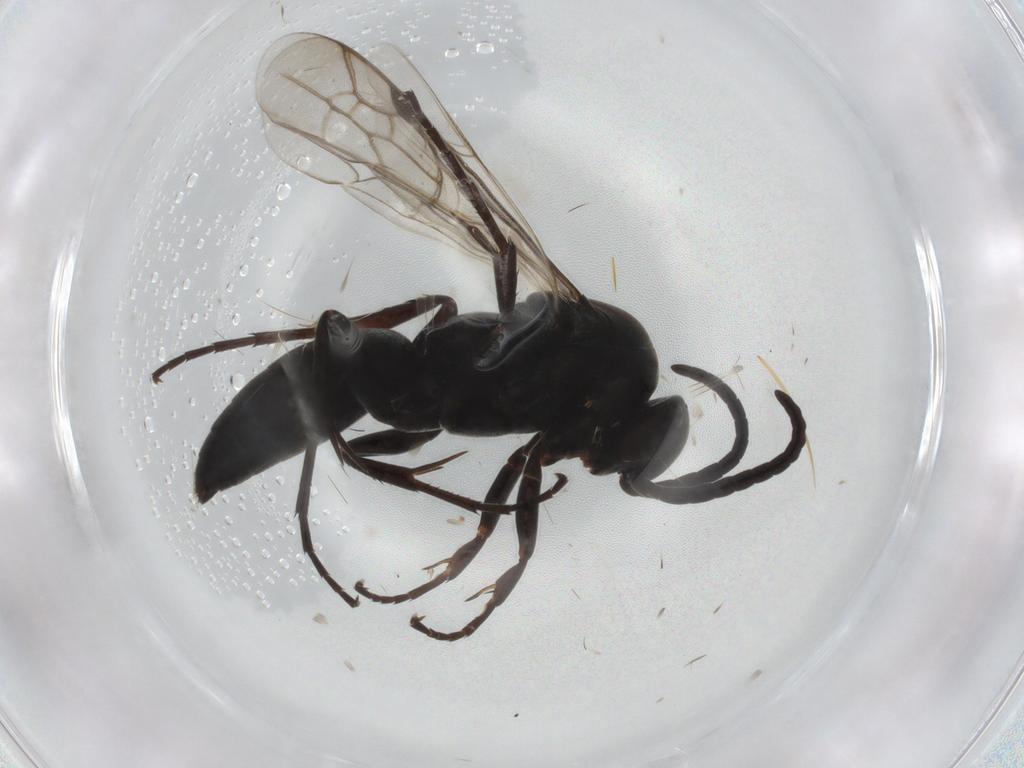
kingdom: Animalia
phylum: Arthropoda
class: Insecta
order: Hymenoptera
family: Pompilidae
